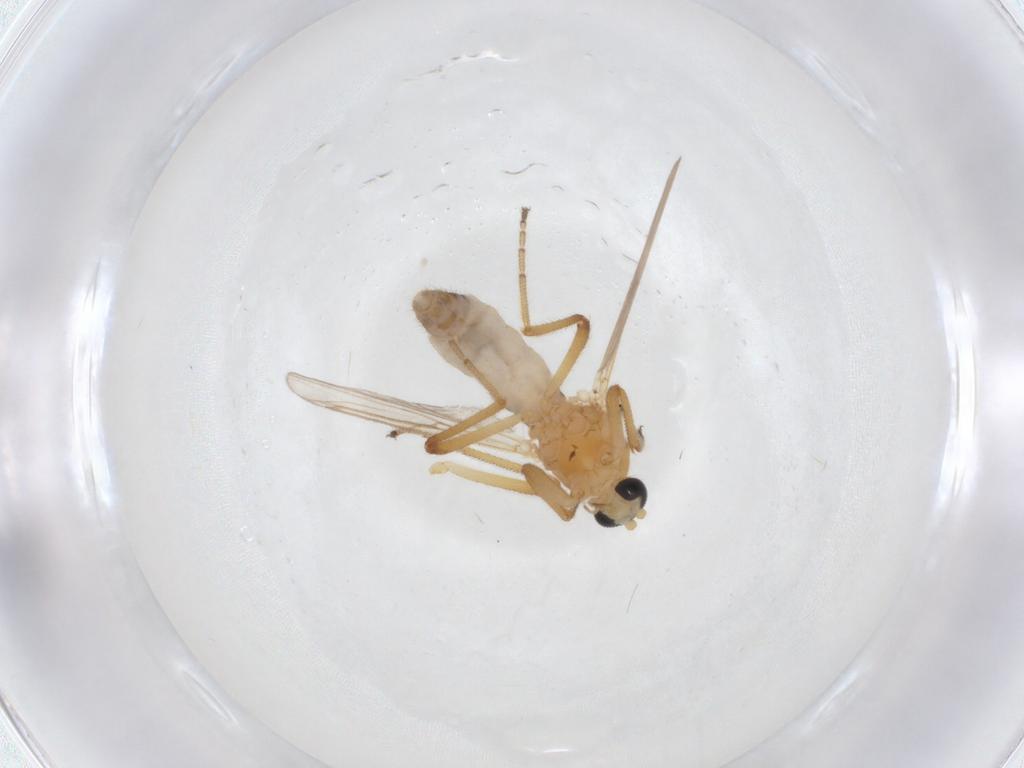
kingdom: Animalia
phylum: Arthropoda
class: Insecta
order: Diptera
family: Ceratopogonidae
